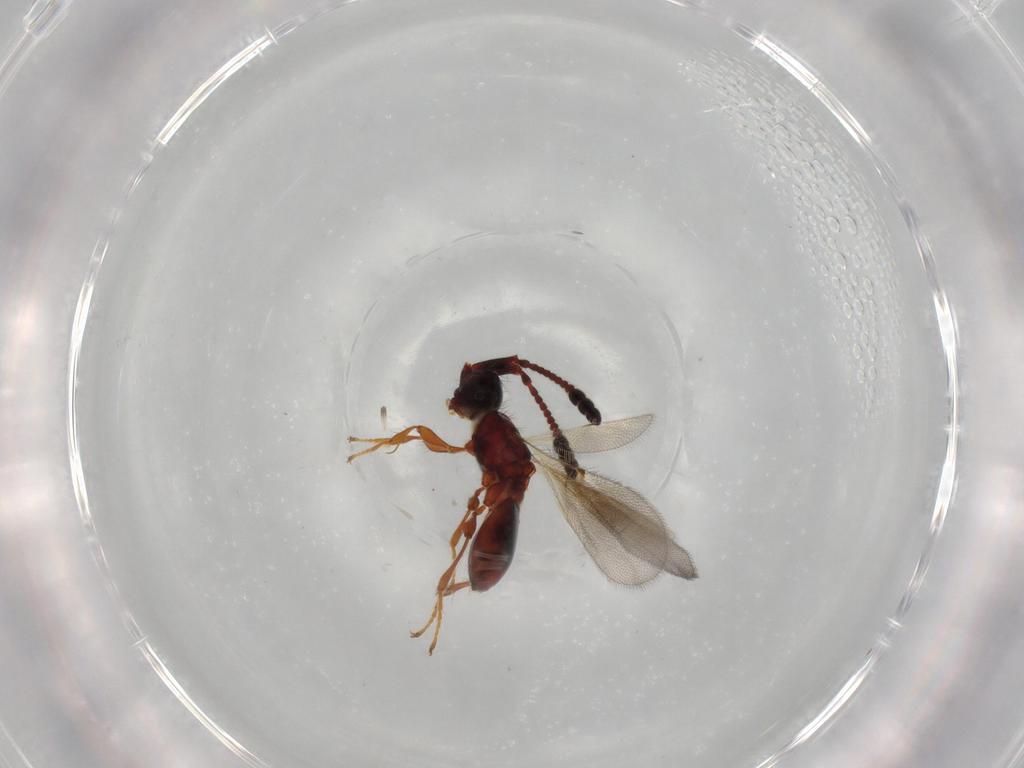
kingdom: Animalia
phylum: Arthropoda
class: Insecta
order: Hymenoptera
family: Diapriidae
